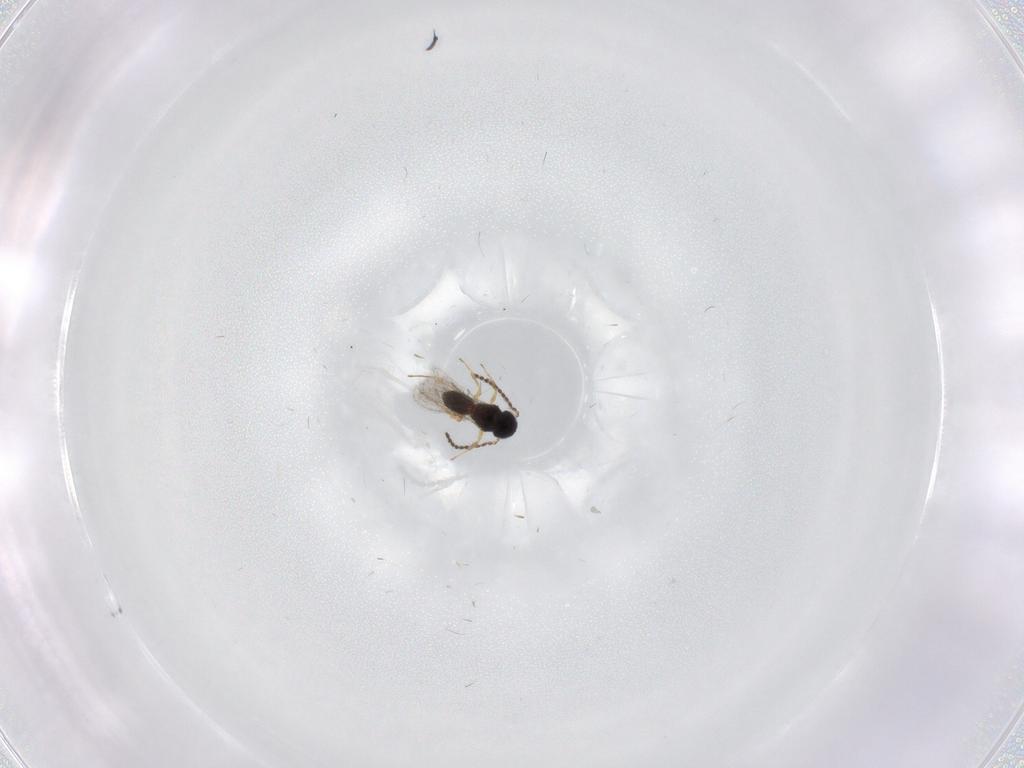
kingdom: Animalia
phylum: Arthropoda
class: Insecta
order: Hymenoptera
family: Scelionidae
